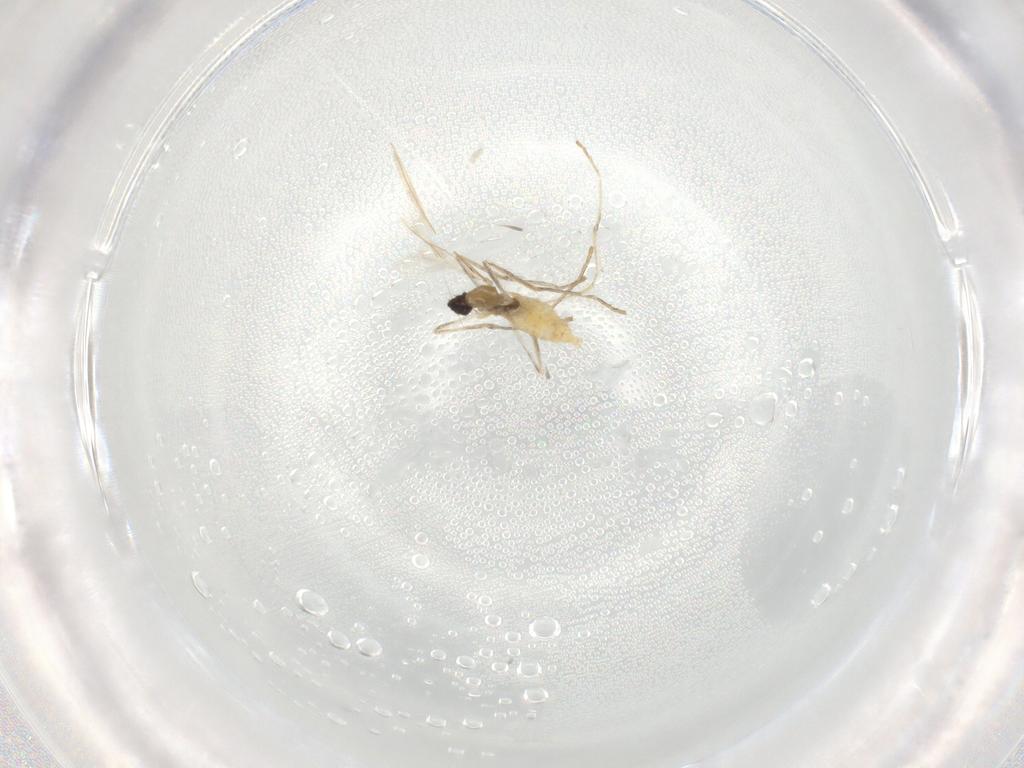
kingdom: Animalia
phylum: Arthropoda
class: Insecta
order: Diptera
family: Cecidomyiidae
